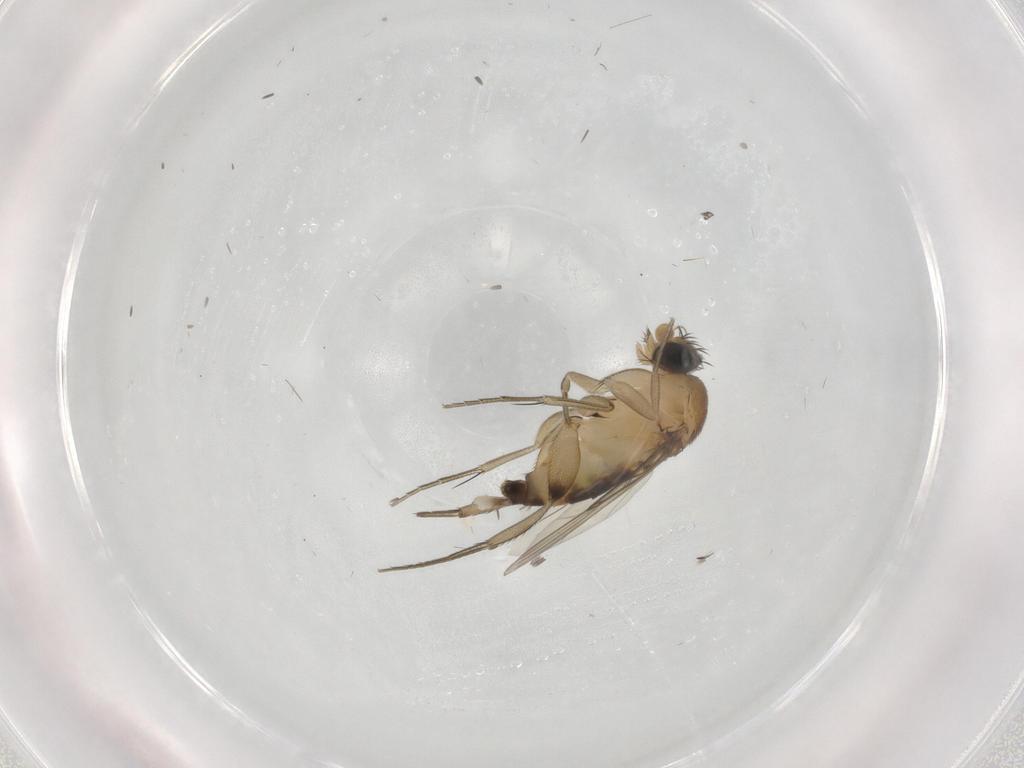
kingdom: Animalia
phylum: Arthropoda
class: Insecta
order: Diptera
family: Phoridae
